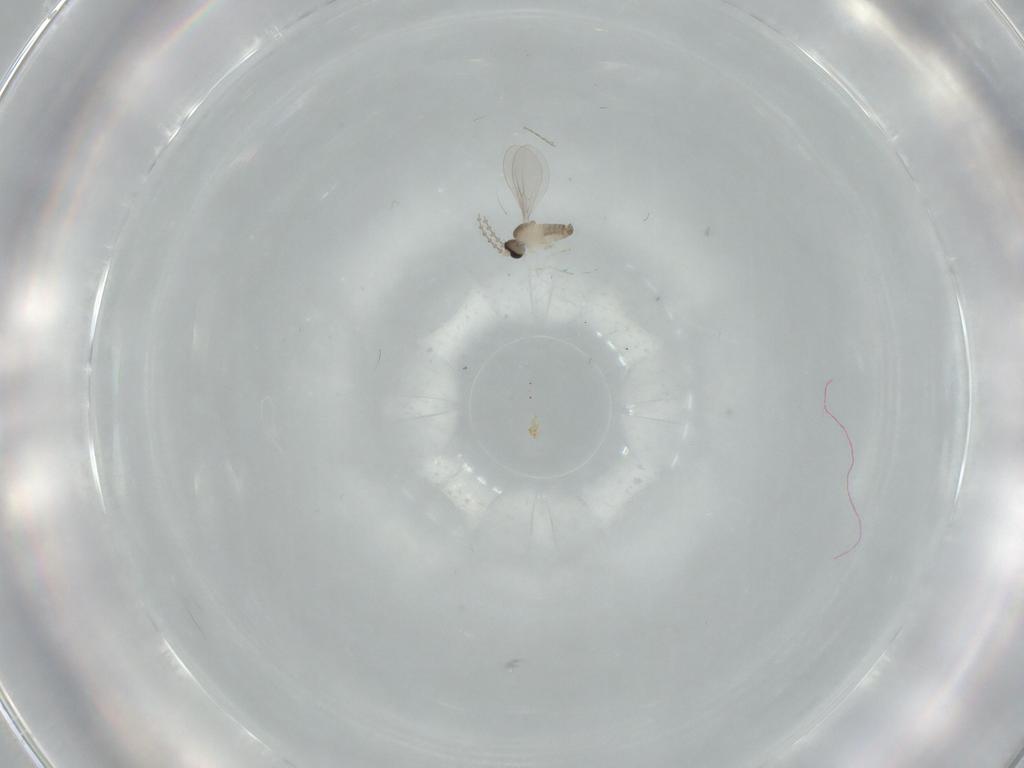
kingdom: Animalia
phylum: Arthropoda
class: Insecta
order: Diptera
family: Cecidomyiidae
